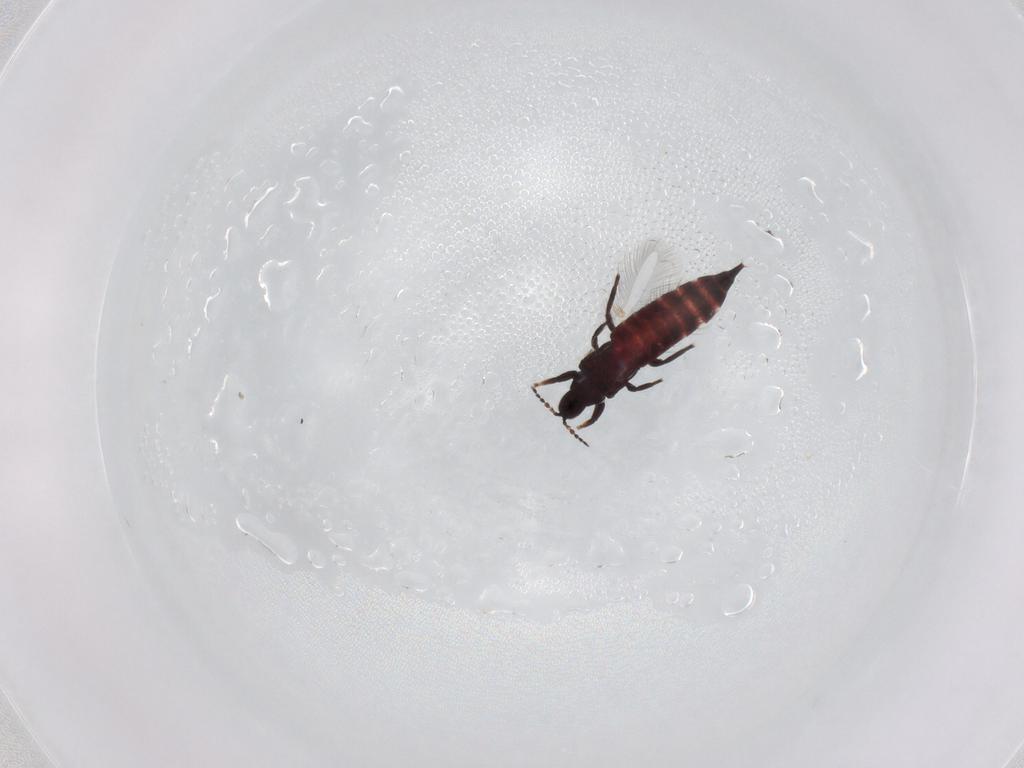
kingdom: Animalia
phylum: Arthropoda
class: Insecta
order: Thysanoptera
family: Phlaeothripidae
